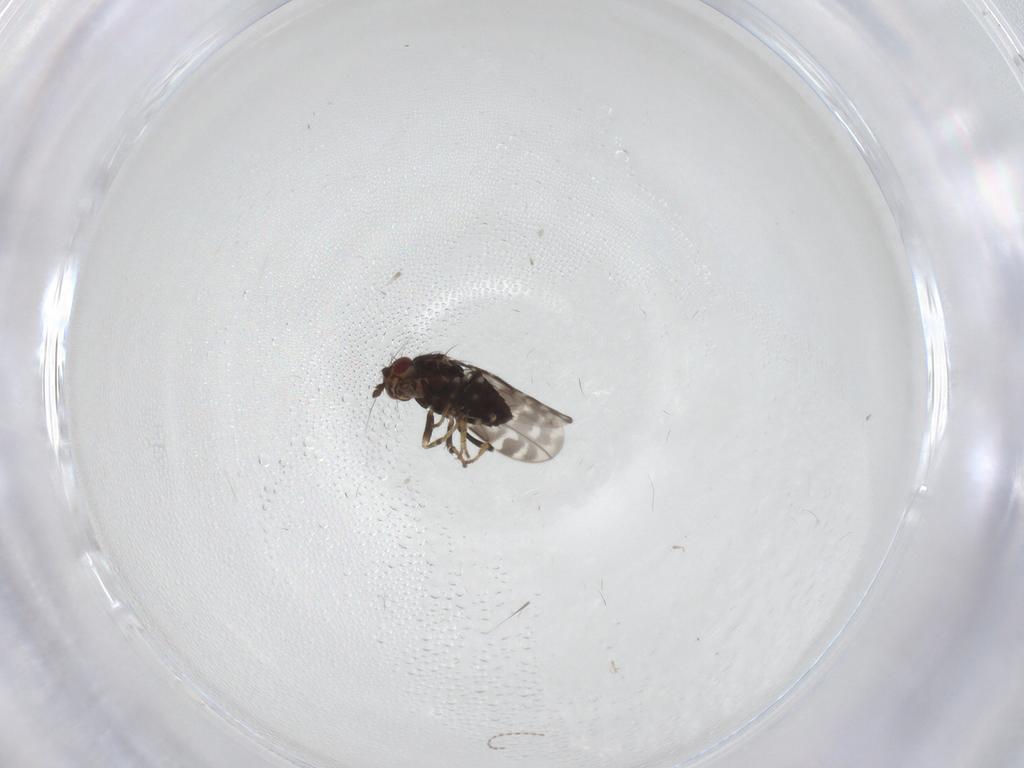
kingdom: Animalia
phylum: Arthropoda
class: Insecta
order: Diptera
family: Sphaeroceridae
